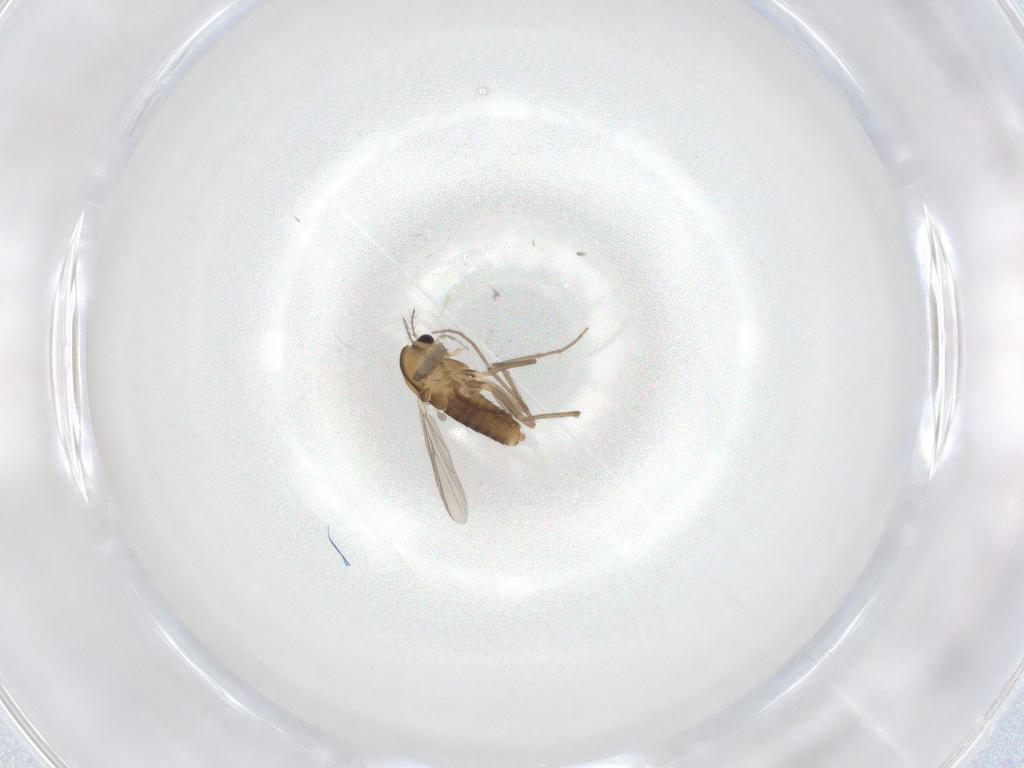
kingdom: Animalia
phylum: Arthropoda
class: Insecta
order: Diptera
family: Chironomidae
